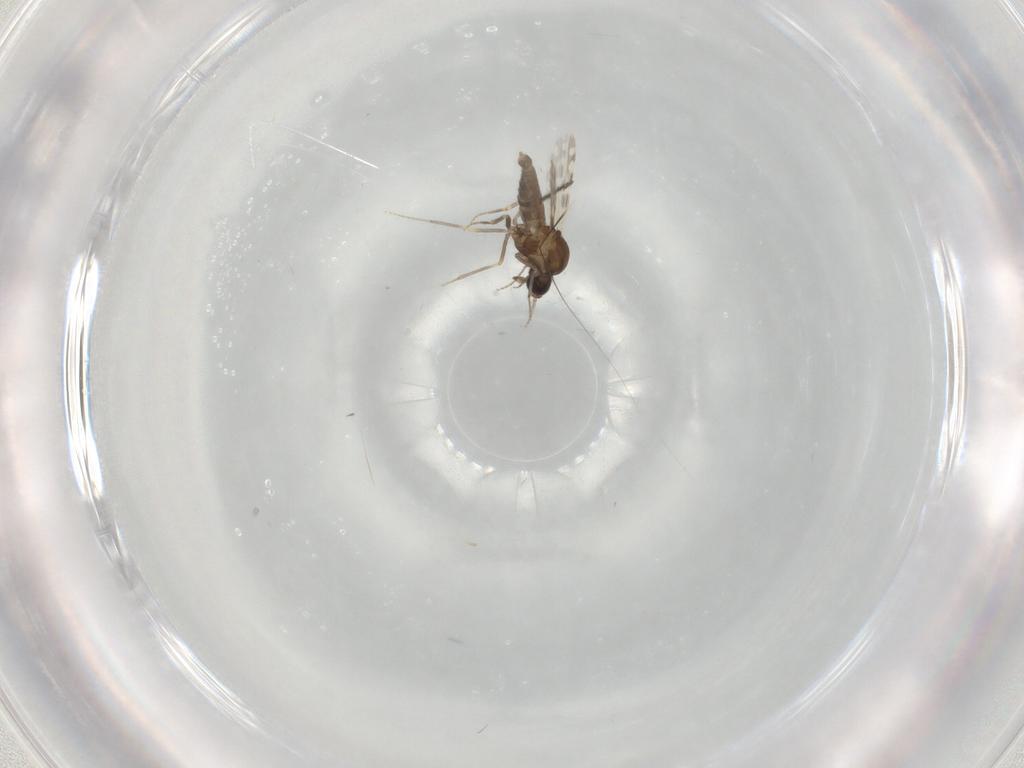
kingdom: Animalia
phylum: Arthropoda
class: Insecta
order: Diptera
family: Ceratopogonidae
